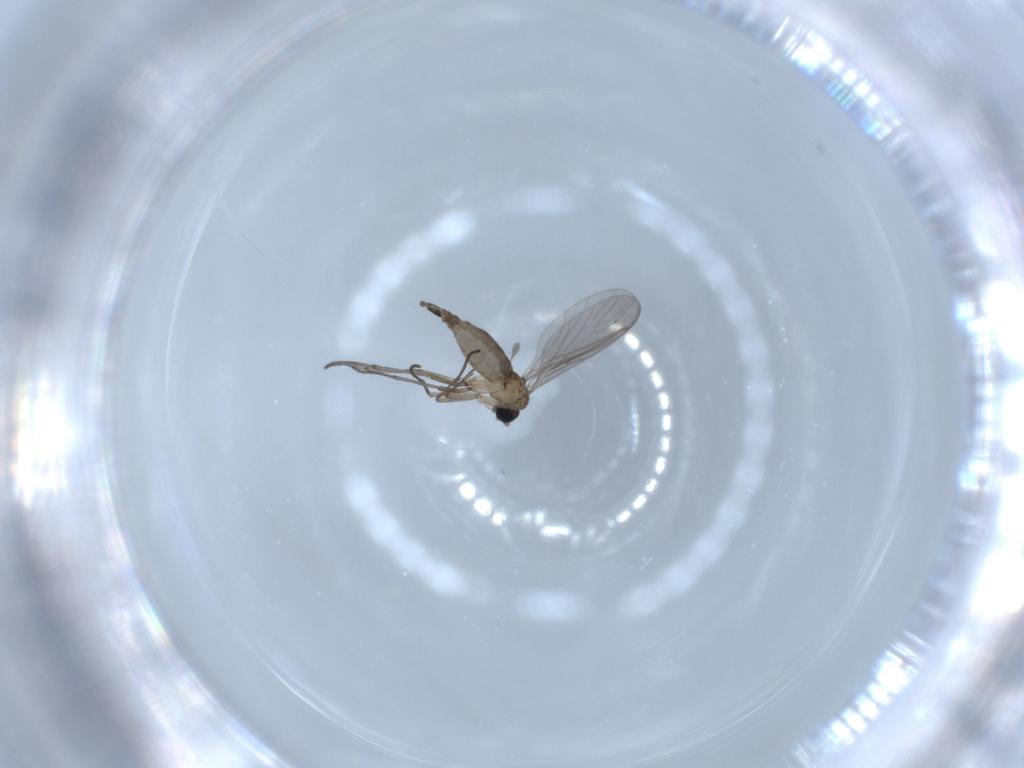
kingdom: Animalia
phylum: Arthropoda
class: Insecta
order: Diptera
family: Sciaridae
